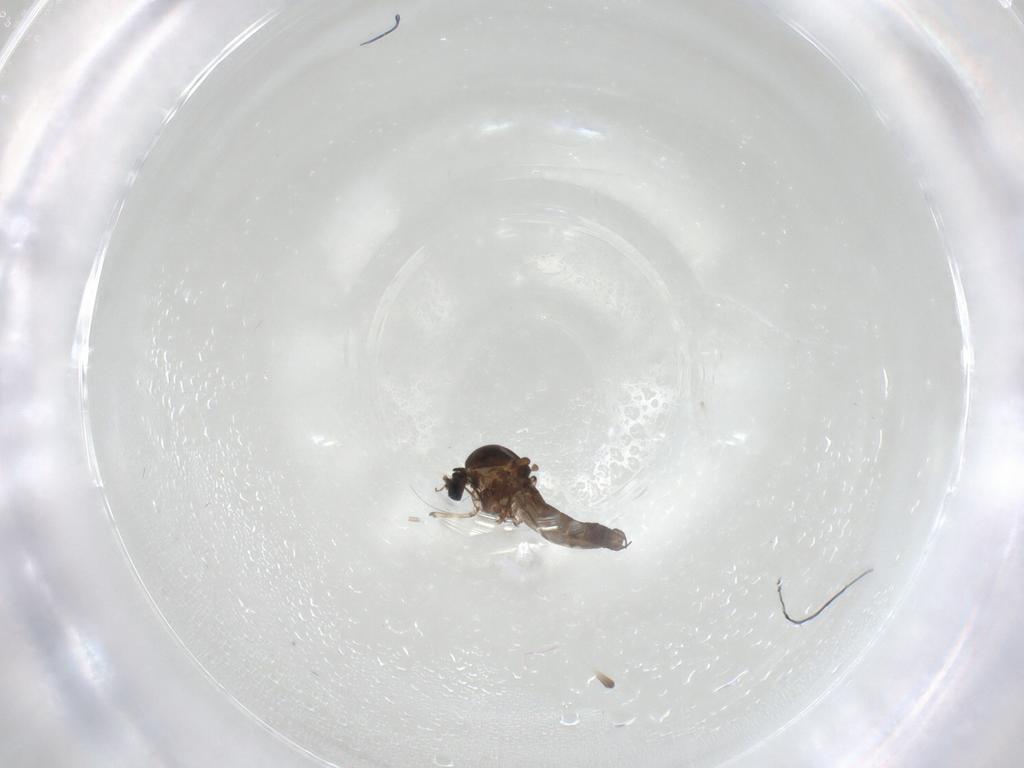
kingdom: Animalia
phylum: Arthropoda
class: Insecta
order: Diptera
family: Ceratopogonidae
